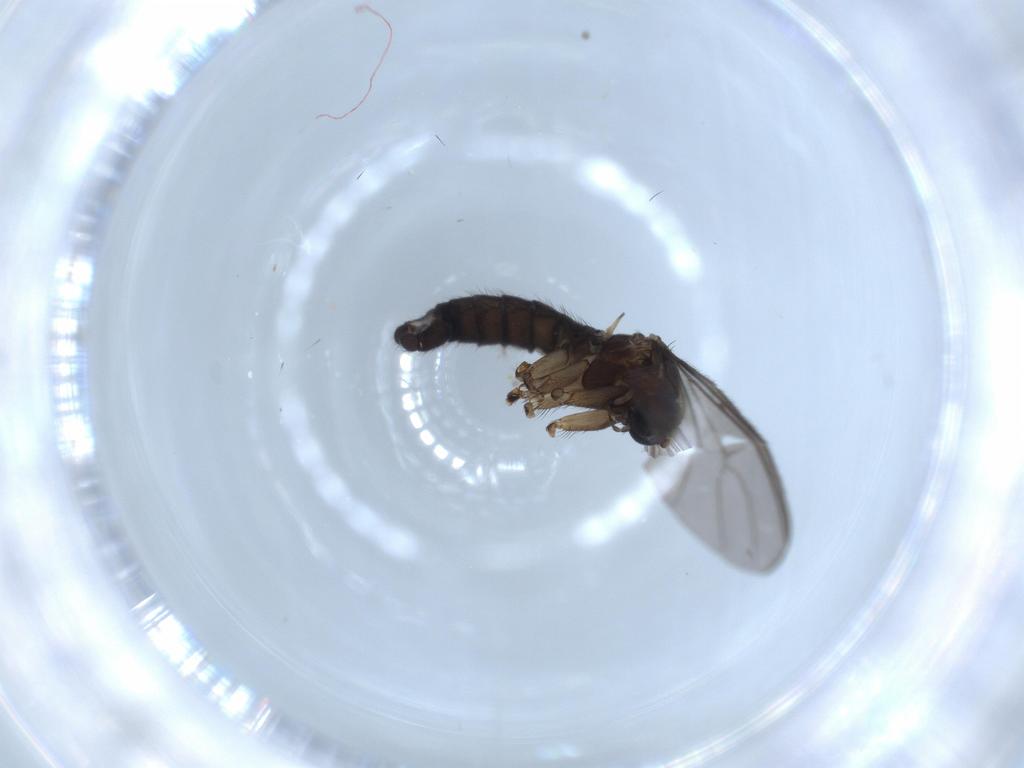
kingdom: Animalia
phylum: Arthropoda
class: Insecta
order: Diptera
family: Sciaridae
